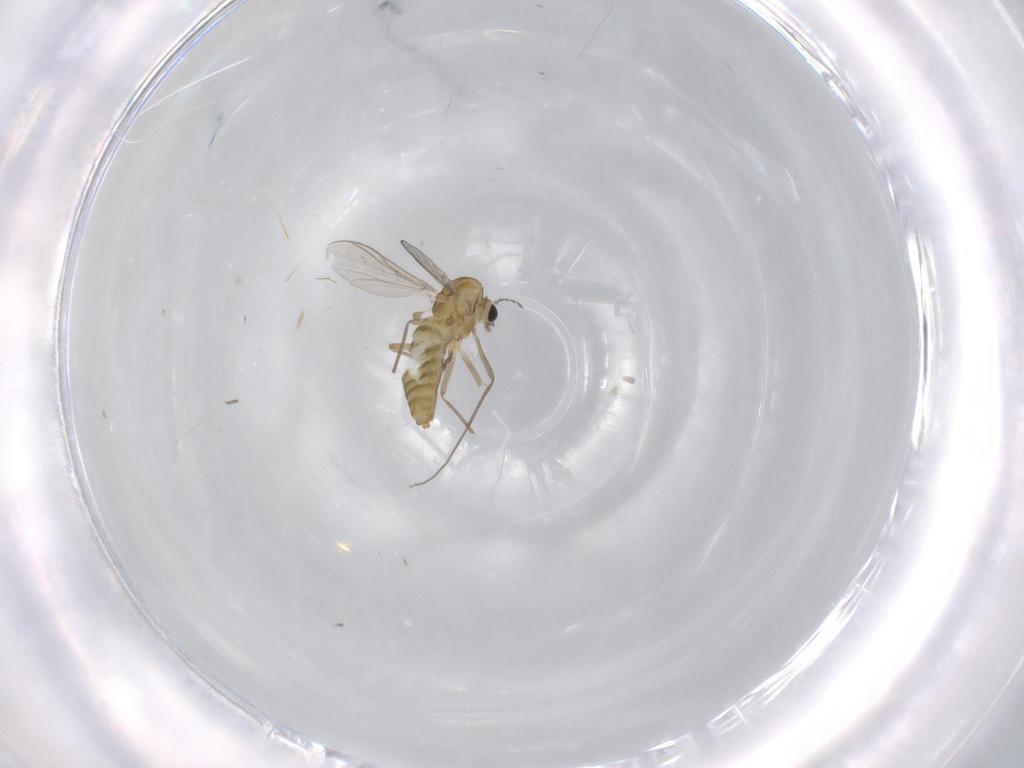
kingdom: Animalia
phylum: Arthropoda
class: Insecta
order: Diptera
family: Chironomidae
